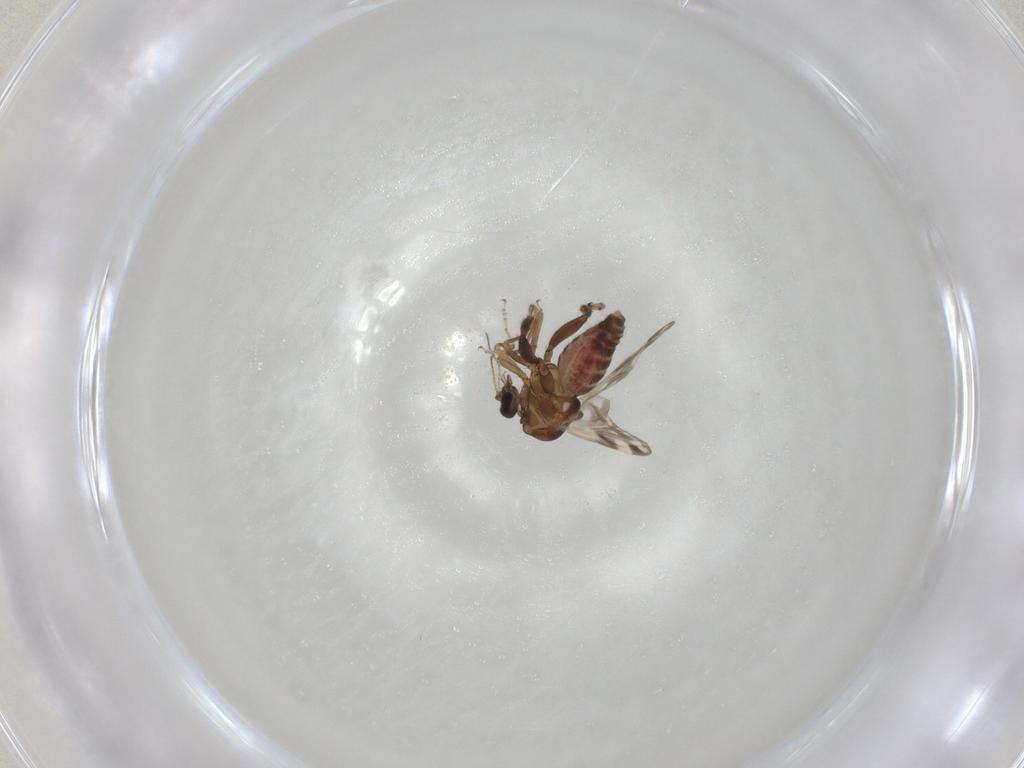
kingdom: Animalia
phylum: Arthropoda
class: Insecta
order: Diptera
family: Ceratopogonidae
